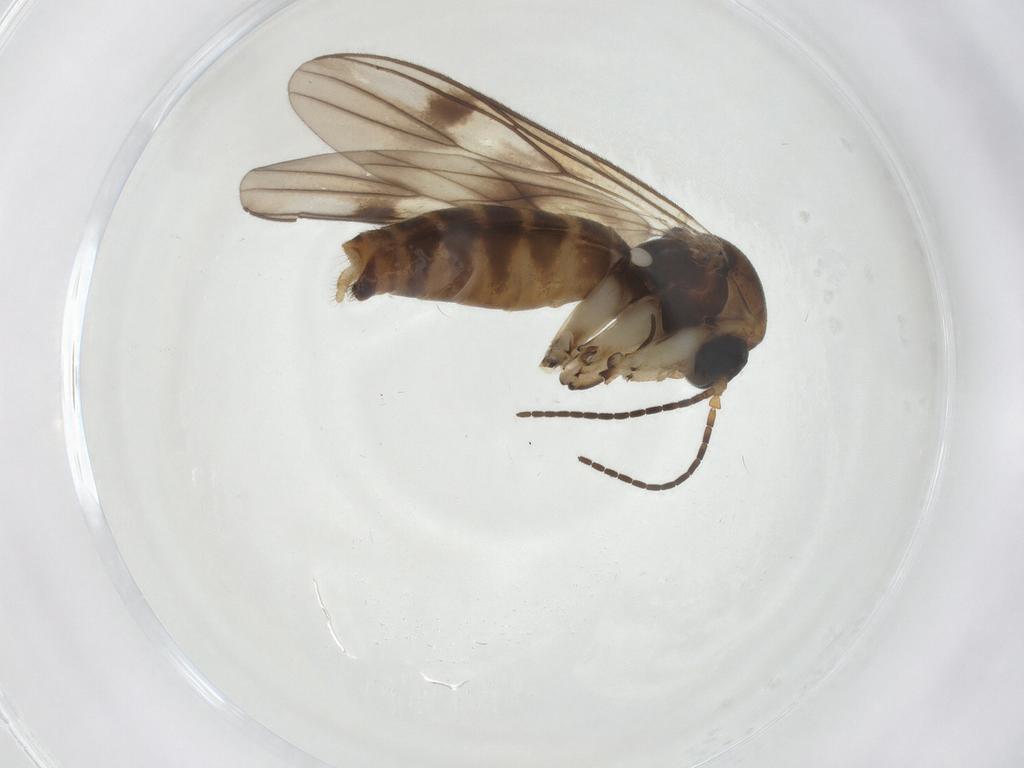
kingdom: Animalia
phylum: Arthropoda
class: Insecta
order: Diptera
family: Mycetophilidae
